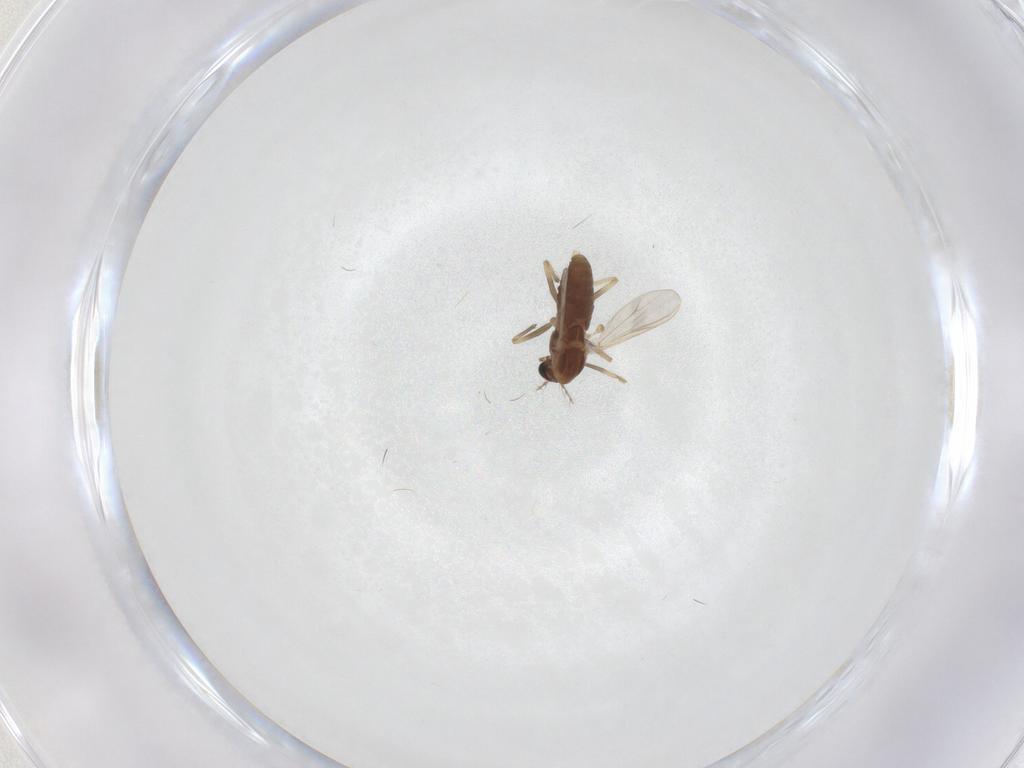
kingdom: Animalia
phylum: Arthropoda
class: Insecta
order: Diptera
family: Chironomidae
